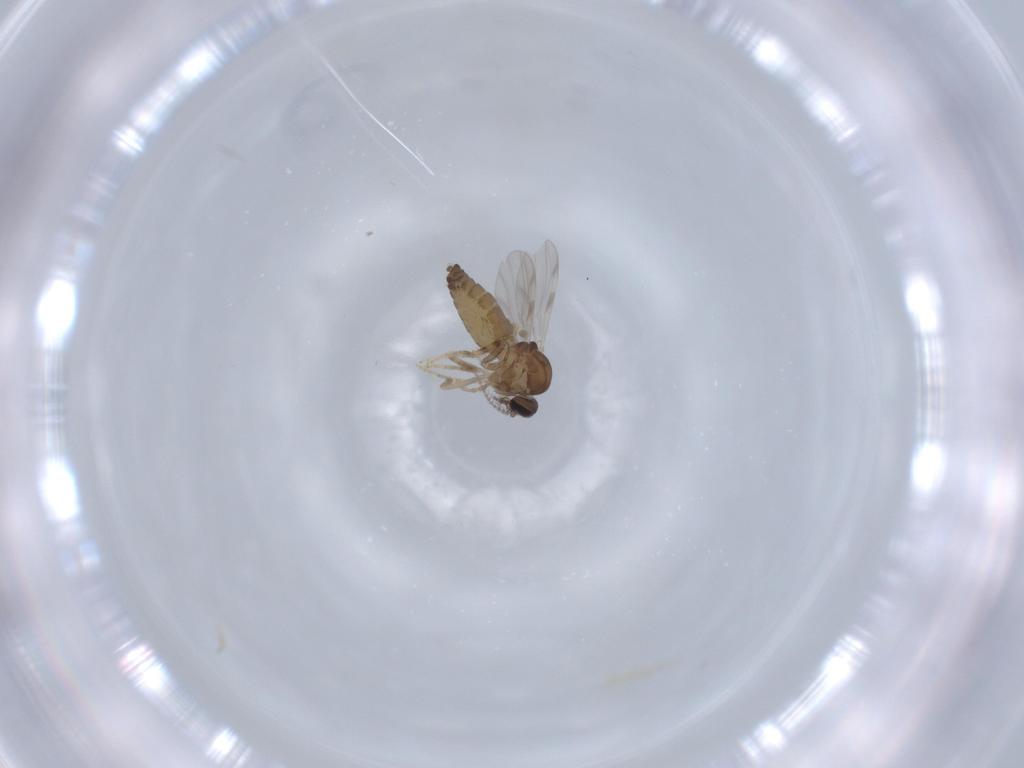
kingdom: Animalia
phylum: Arthropoda
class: Insecta
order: Diptera
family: Ceratopogonidae
